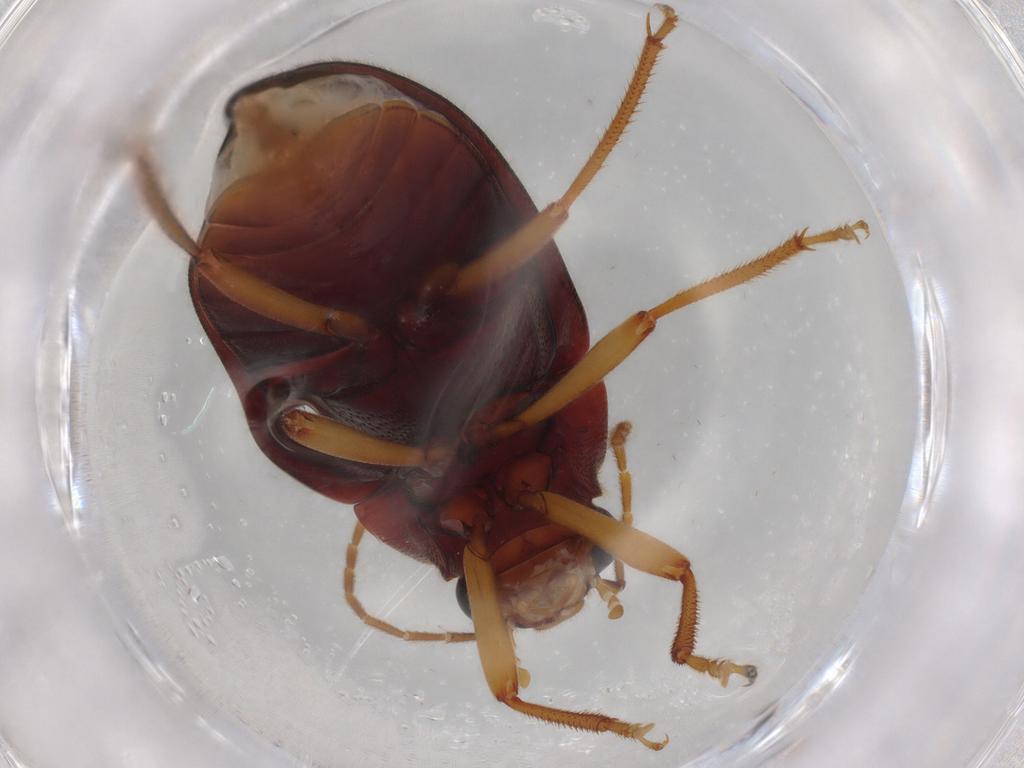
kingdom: Animalia
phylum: Arthropoda
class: Insecta
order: Coleoptera
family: Ptilodactylidae
